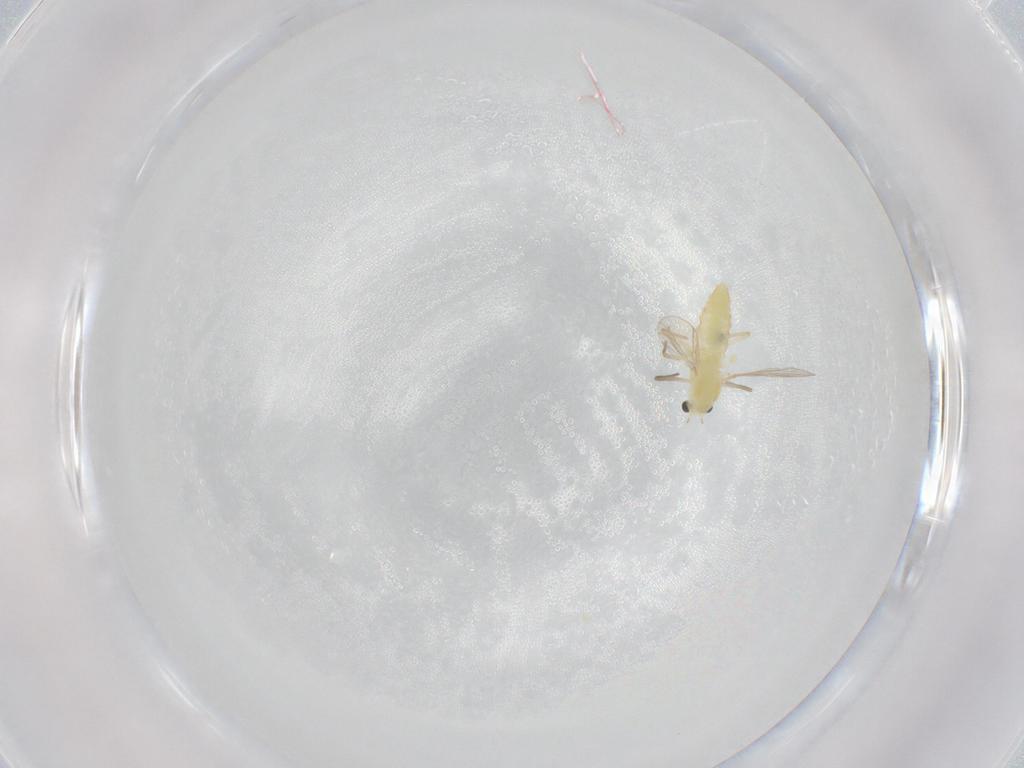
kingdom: Animalia
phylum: Arthropoda
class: Insecta
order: Diptera
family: Chironomidae
